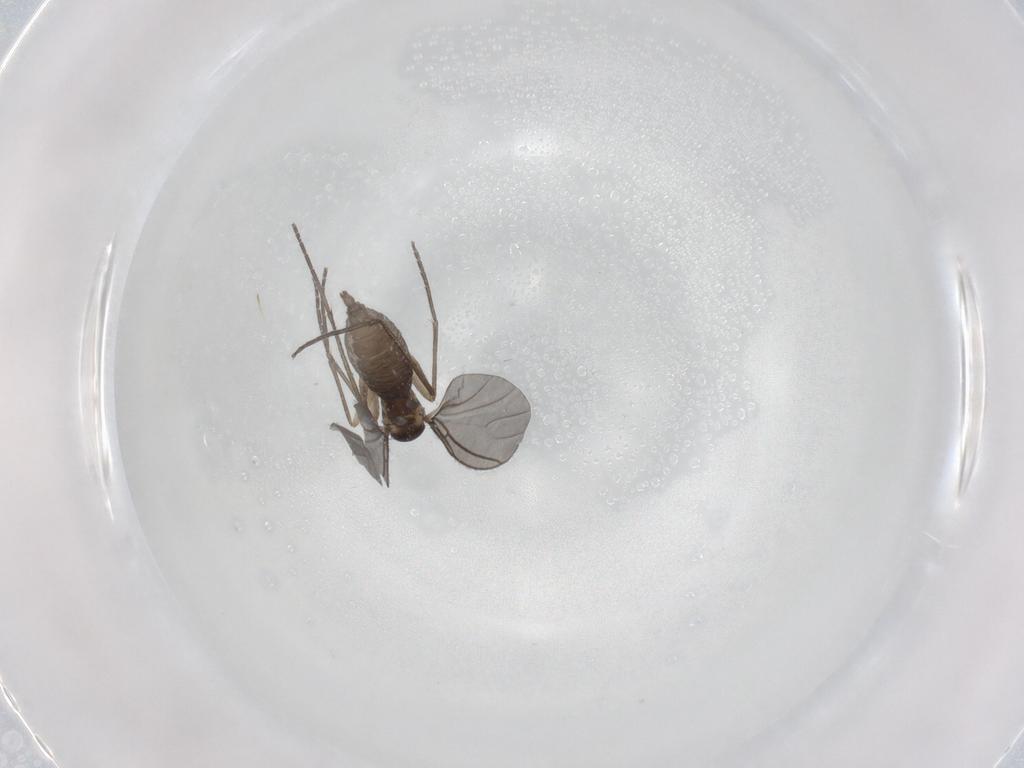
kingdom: Animalia
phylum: Arthropoda
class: Insecta
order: Diptera
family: Sciaridae
